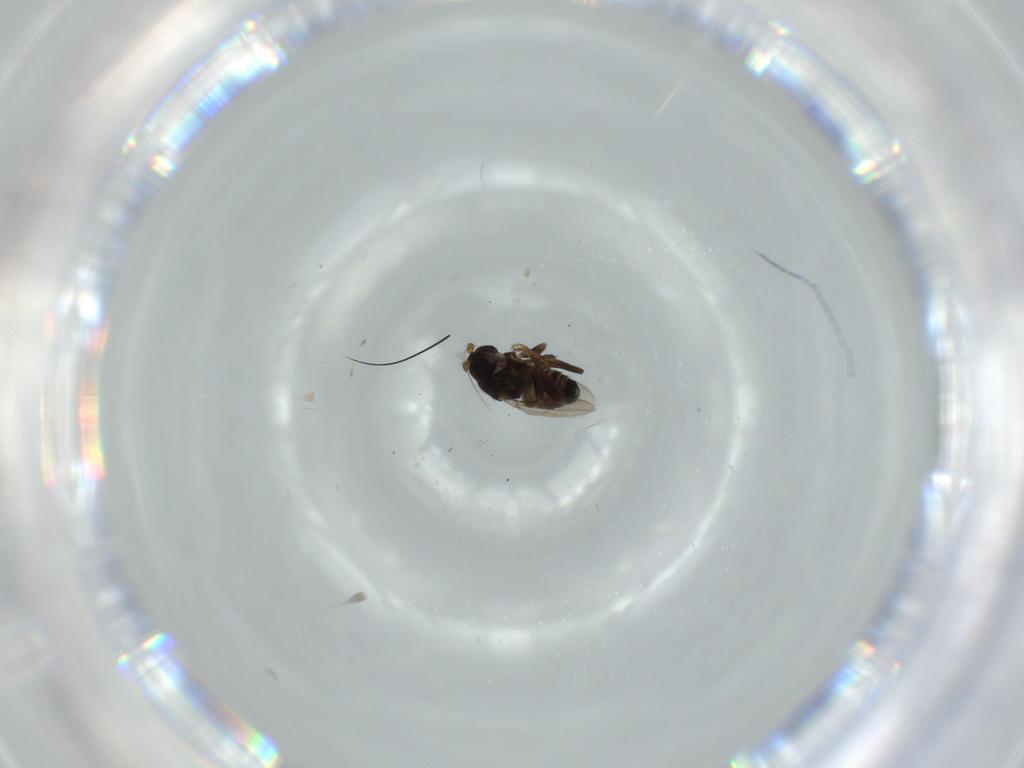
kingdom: Animalia
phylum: Arthropoda
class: Insecta
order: Diptera
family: Sphaeroceridae
